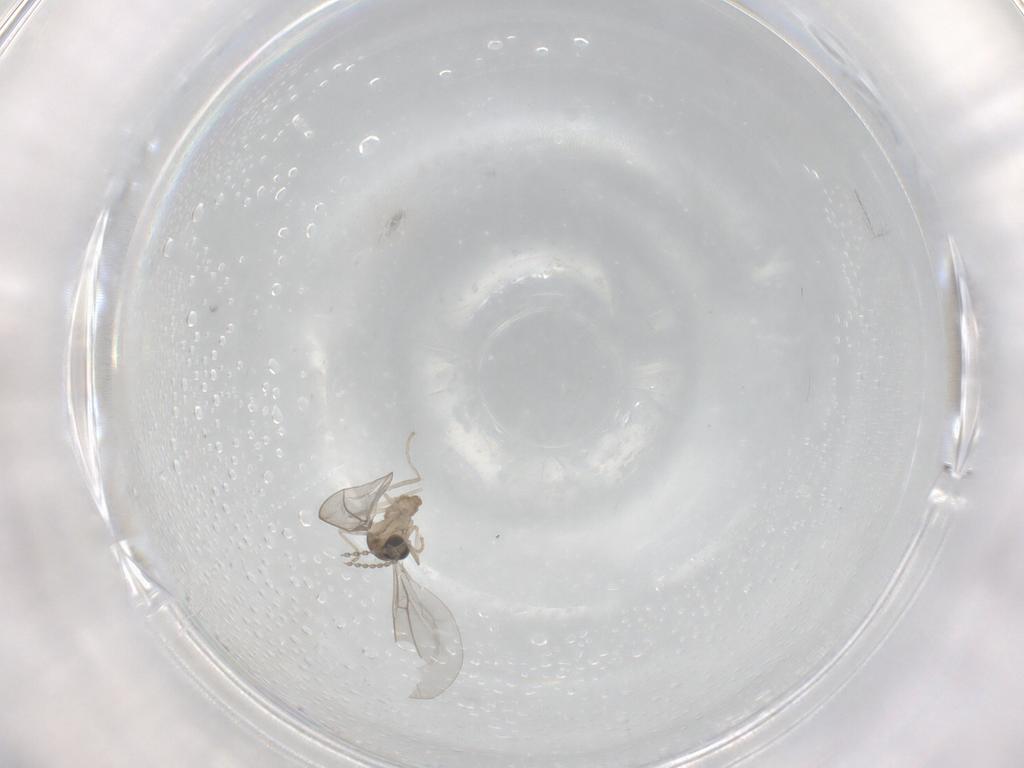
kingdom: Animalia
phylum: Arthropoda
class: Insecta
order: Diptera
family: Cecidomyiidae
